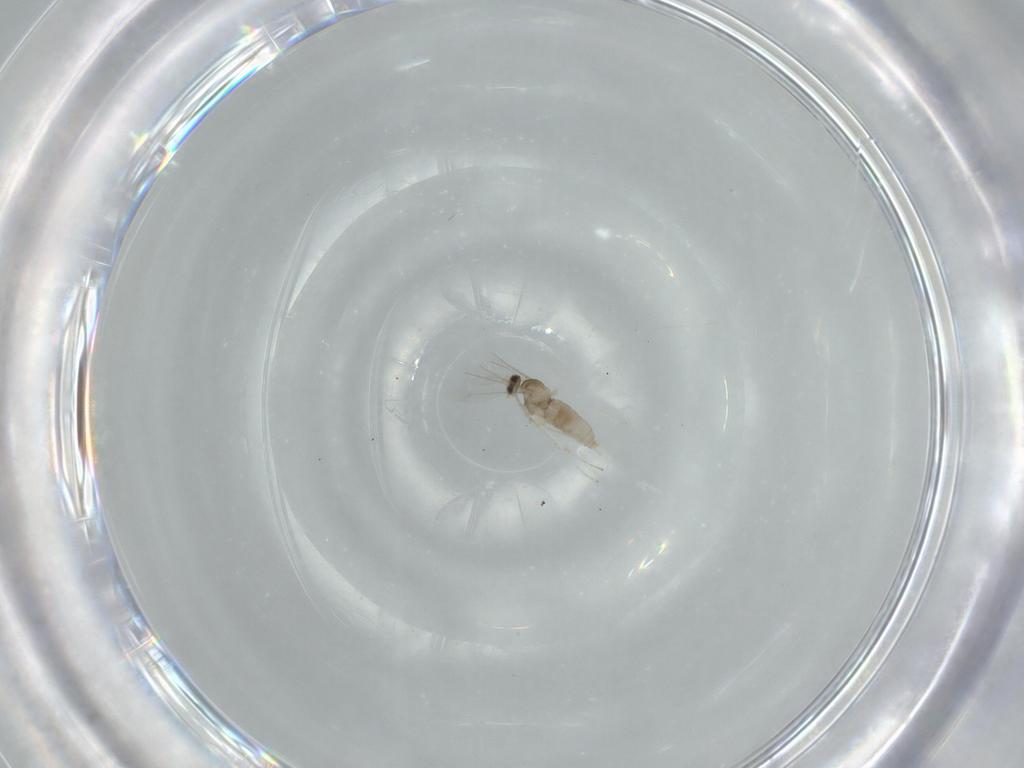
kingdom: Animalia
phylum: Arthropoda
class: Insecta
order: Diptera
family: Cecidomyiidae
